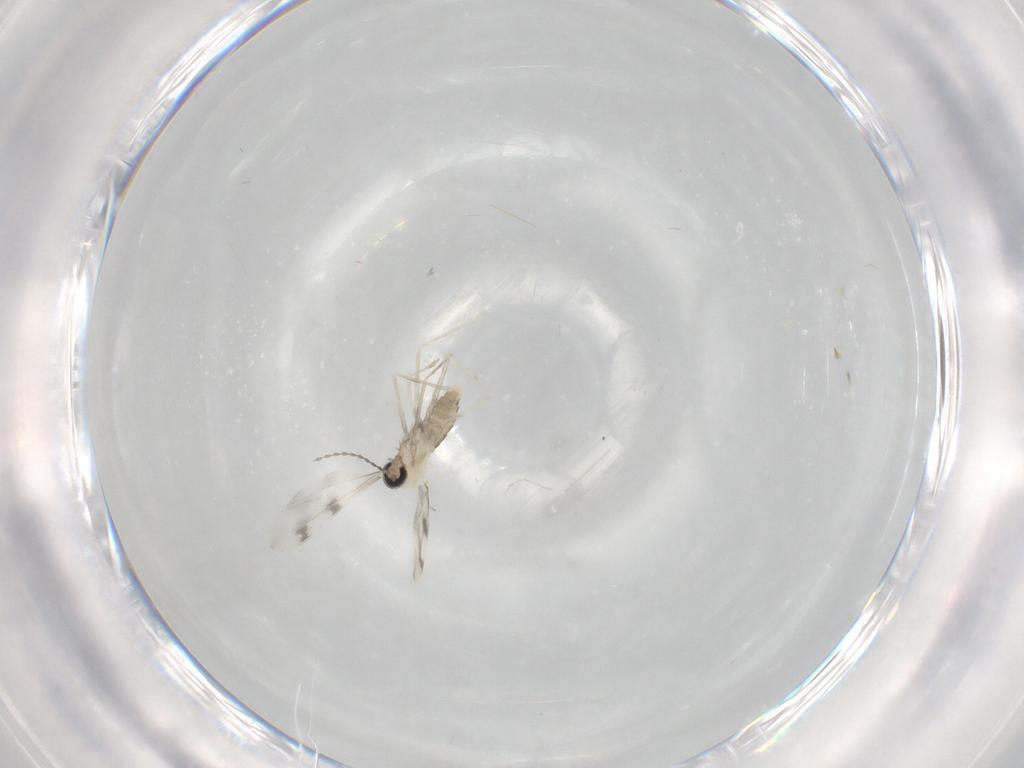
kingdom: Animalia
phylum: Arthropoda
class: Insecta
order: Diptera
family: Cecidomyiidae
